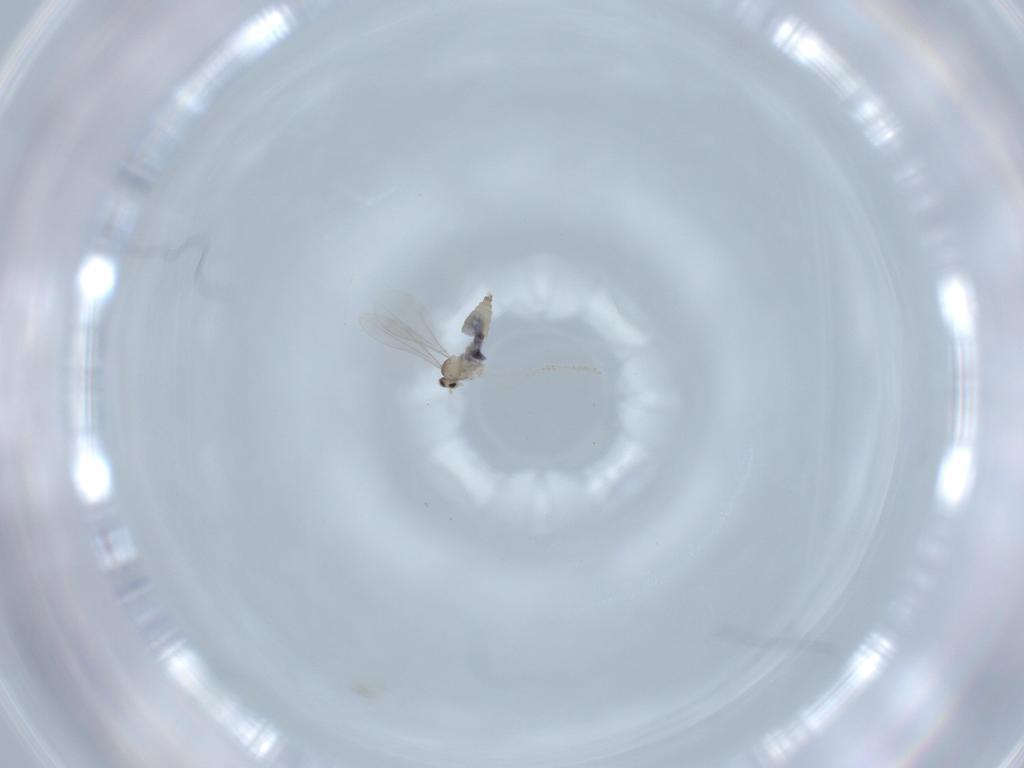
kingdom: Animalia
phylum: Arthropoda
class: Insecta
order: Diptera
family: Cecidomyiidae
